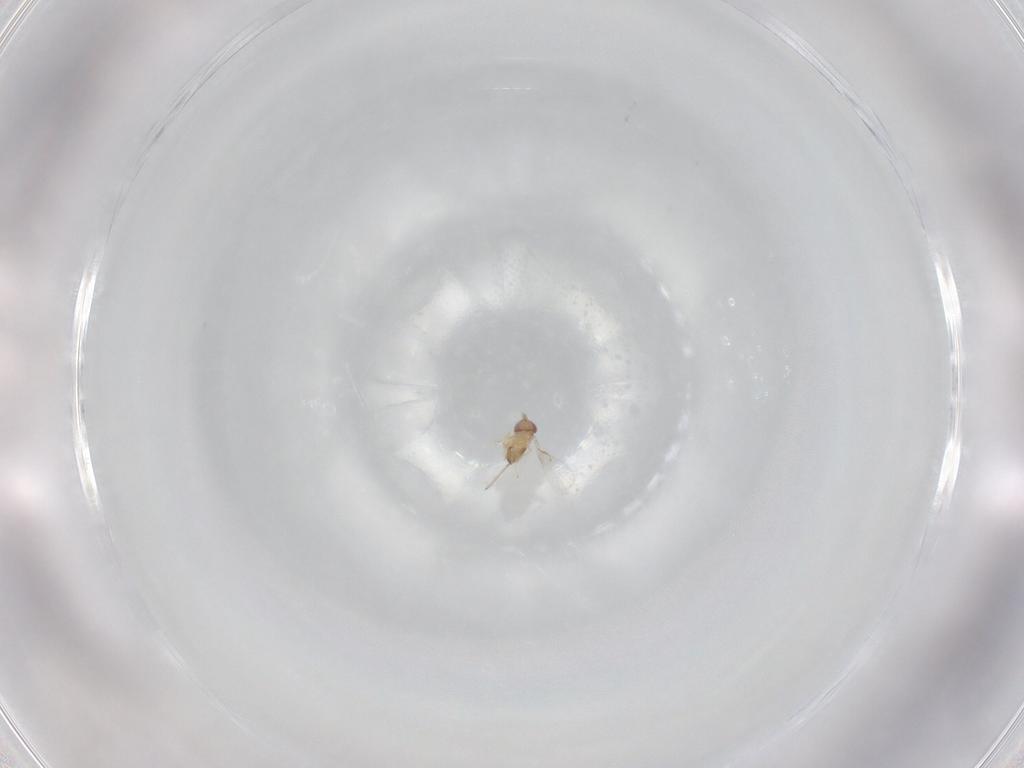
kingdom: Animalia
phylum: Arthropoda
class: Insecta
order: Hymenoptera
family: Trichogrammatidae
